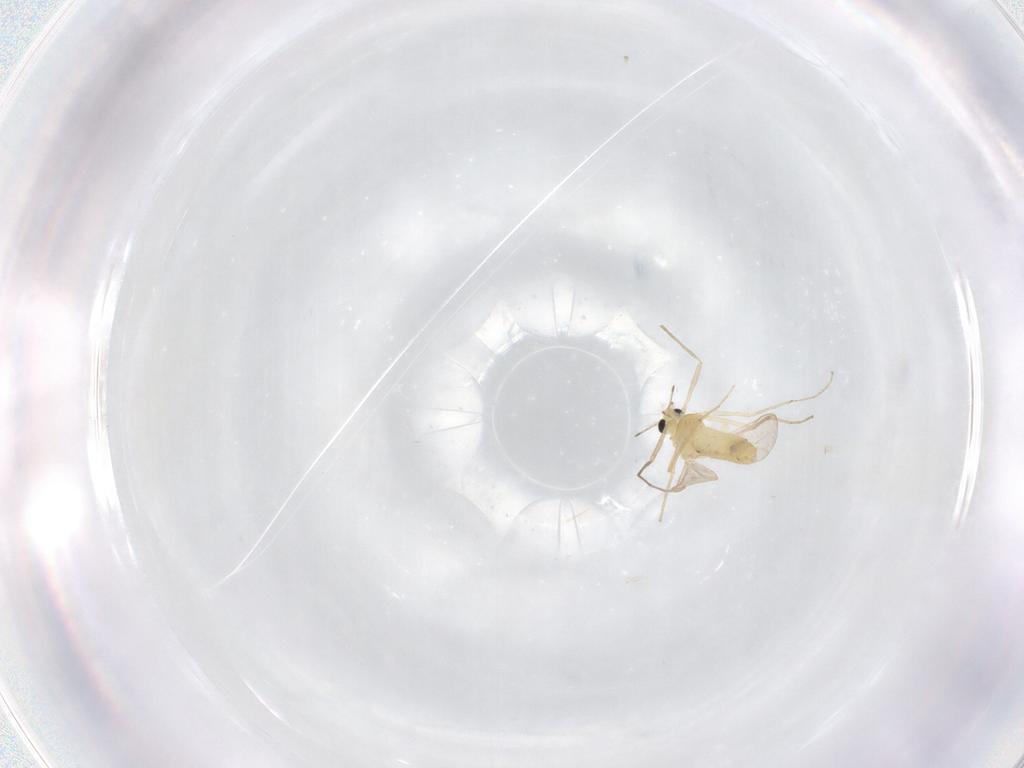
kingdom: Animalia
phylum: Arthropoda
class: Insecta
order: Diptera
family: Chironomidae
